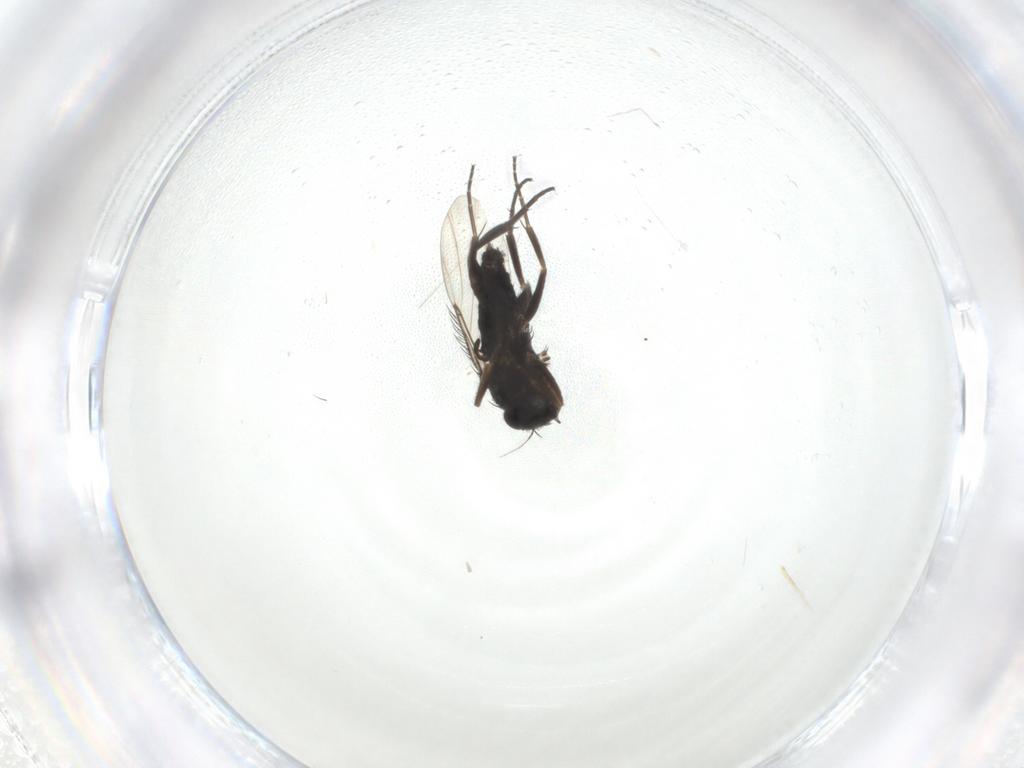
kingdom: Animalia
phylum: Arthropoda
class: Insecta
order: Diptera
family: Phoridae
